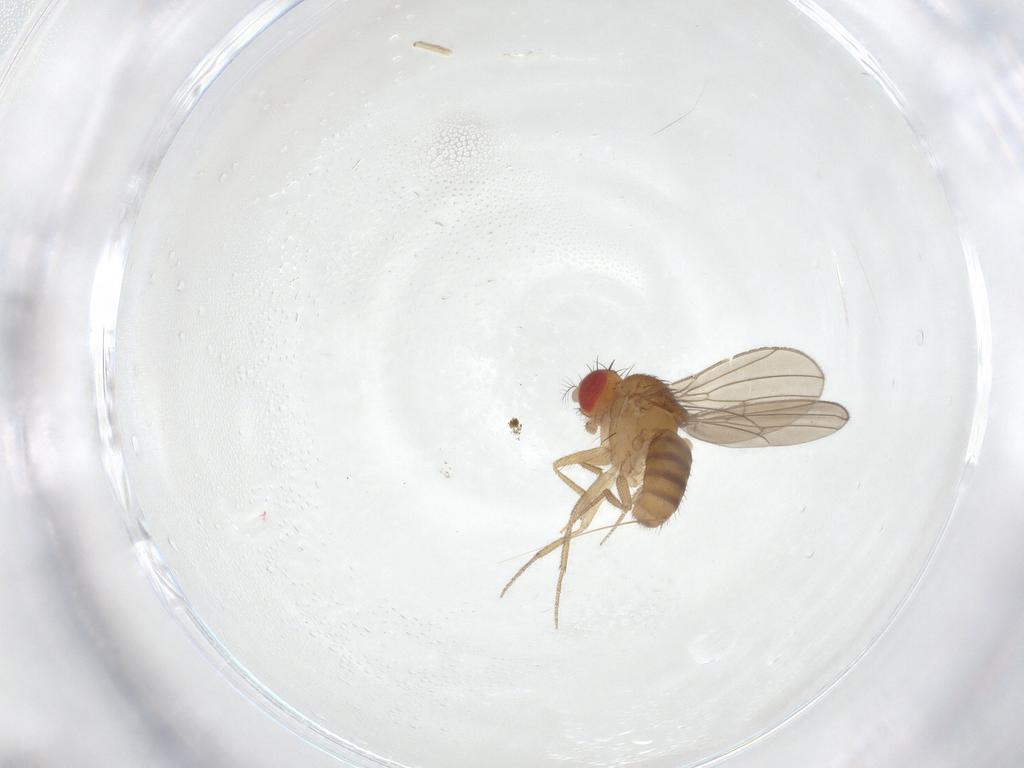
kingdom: Animalia
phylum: Arthropoda
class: Insecta
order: Diptera
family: Drosophilidae
